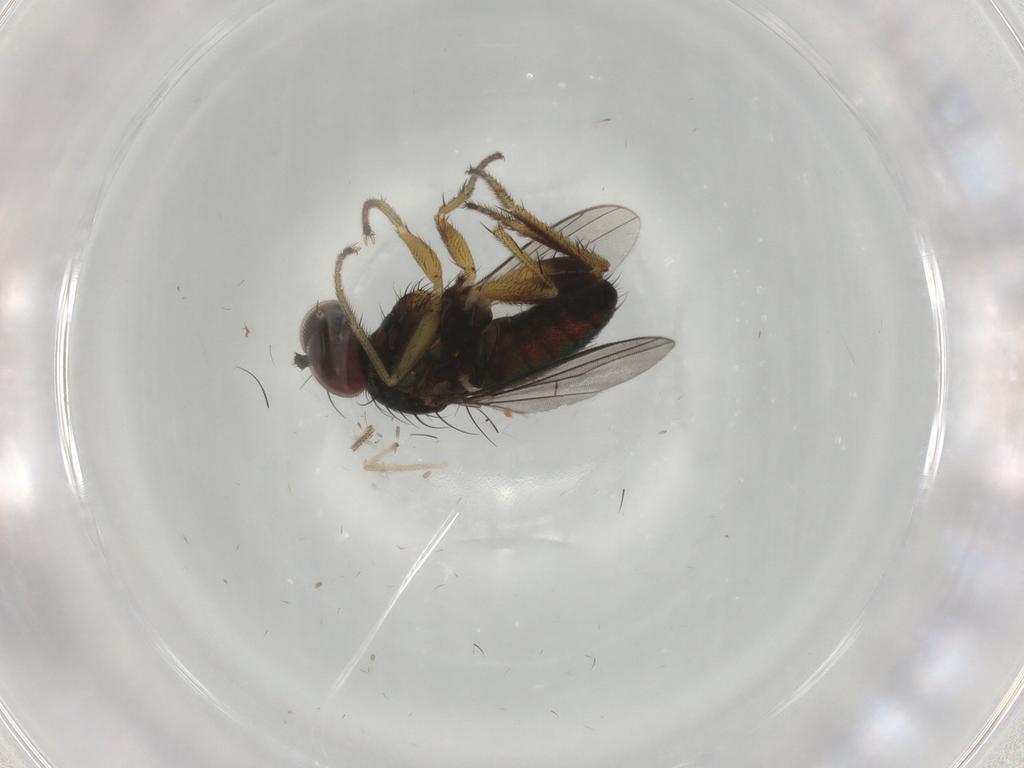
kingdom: Animalia
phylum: Arthropoda
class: Insecta
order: Diptera
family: Dolichopodidae
